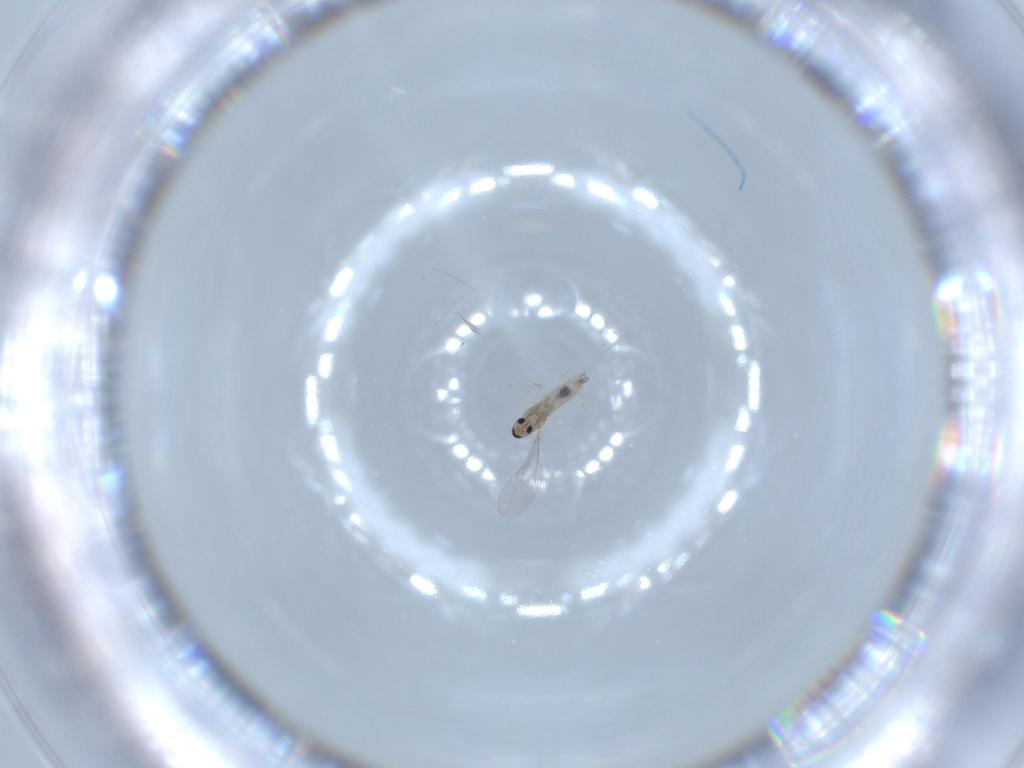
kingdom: Animalia
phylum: Arthropoda
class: Insecta
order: Diptera
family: Cecidomyiidae
